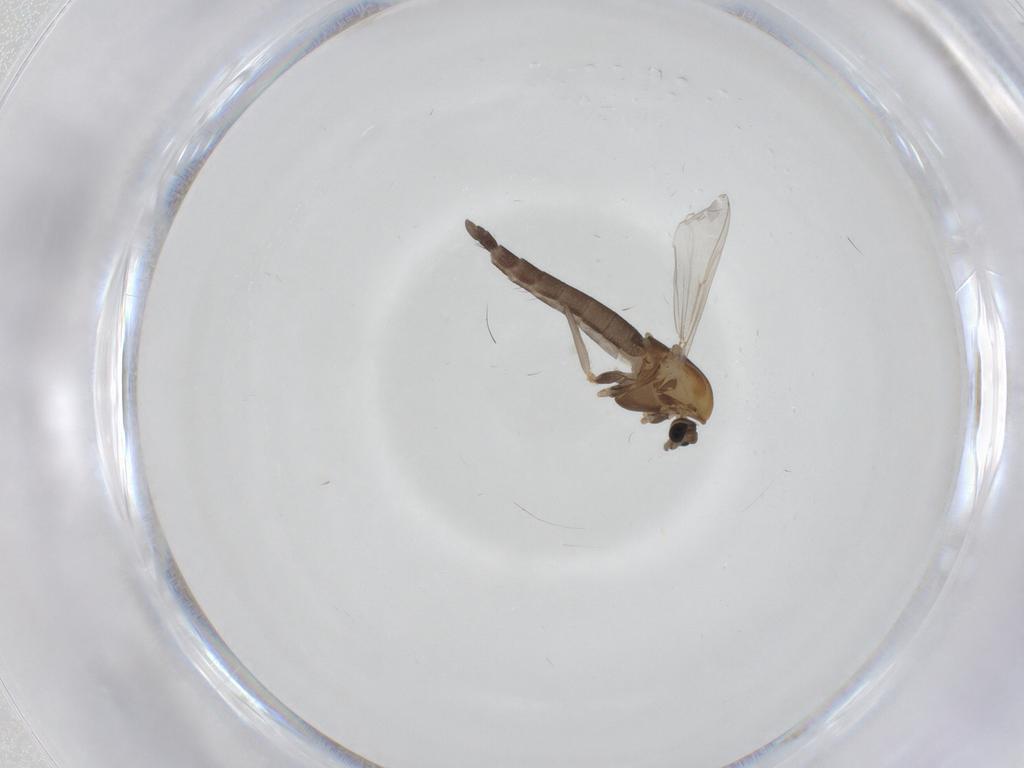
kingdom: Animalia
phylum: Arthropoda
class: Insecta
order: Diptera
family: Chironomidae
